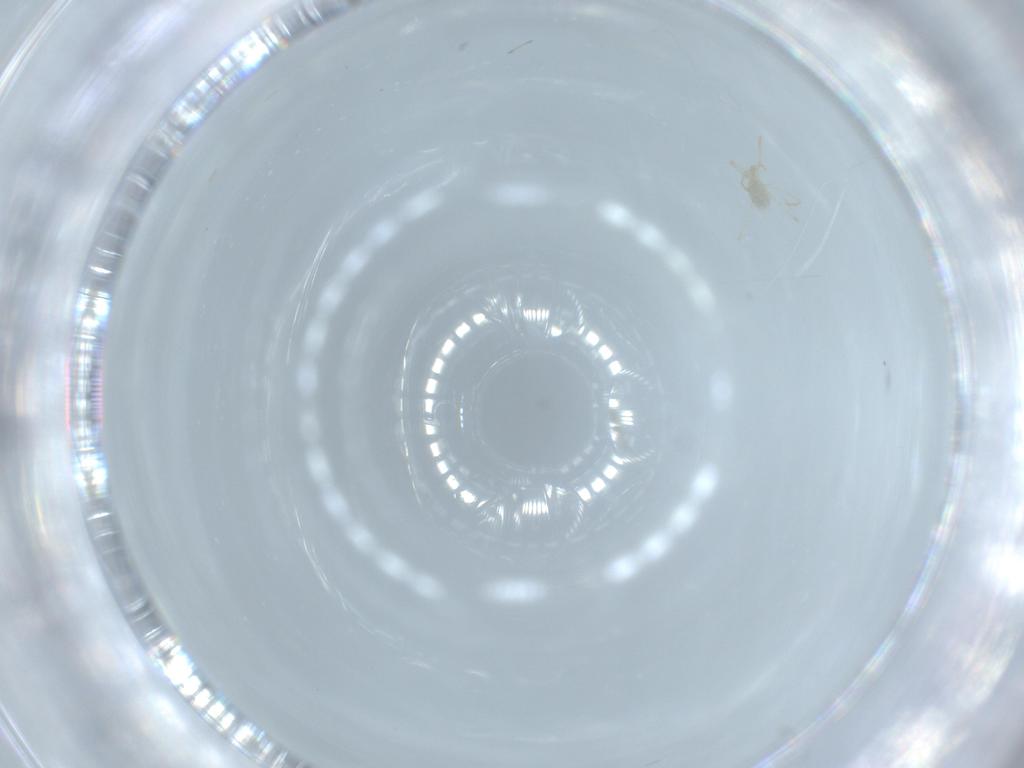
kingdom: Animalia
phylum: Arthropoda
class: Arachnida
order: Trombidiformes
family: Erythraeidae
